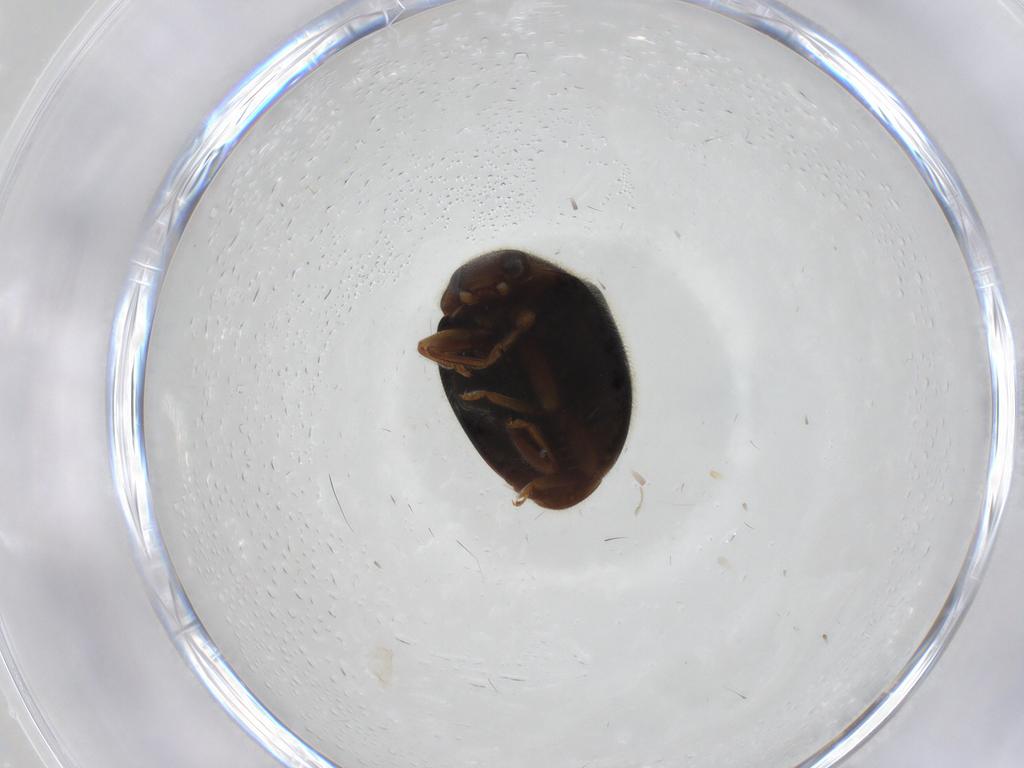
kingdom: Animalia
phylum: Arthropoda
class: Insecta
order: Coleoptera
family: Coccinellidae
